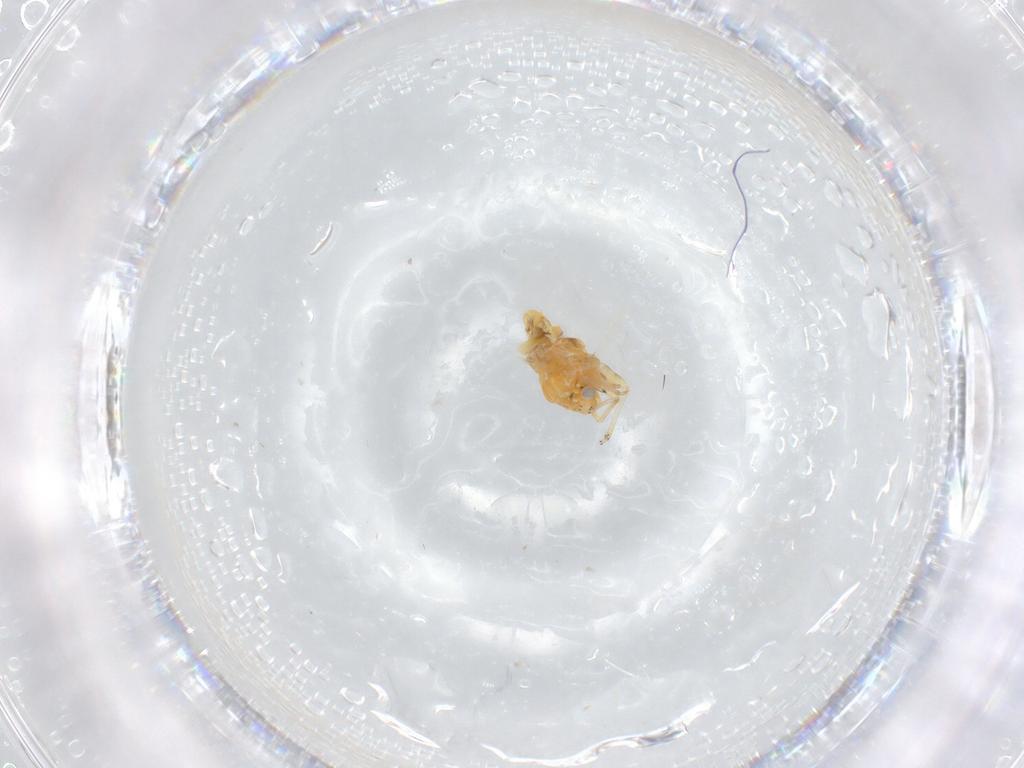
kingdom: Animalia
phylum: Arthropoda
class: Insecta
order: Hemiptera
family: Psyllidae
